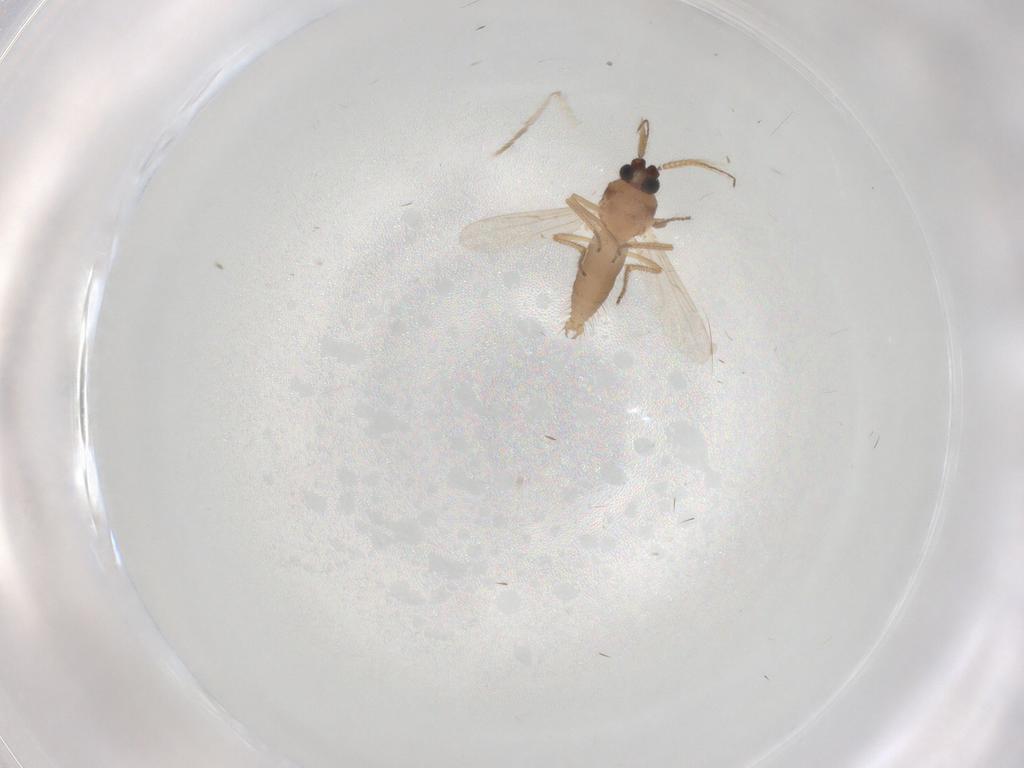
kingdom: Animalia
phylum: Arthropoda
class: Insecta
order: Diptera
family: Ceratopogonidae
